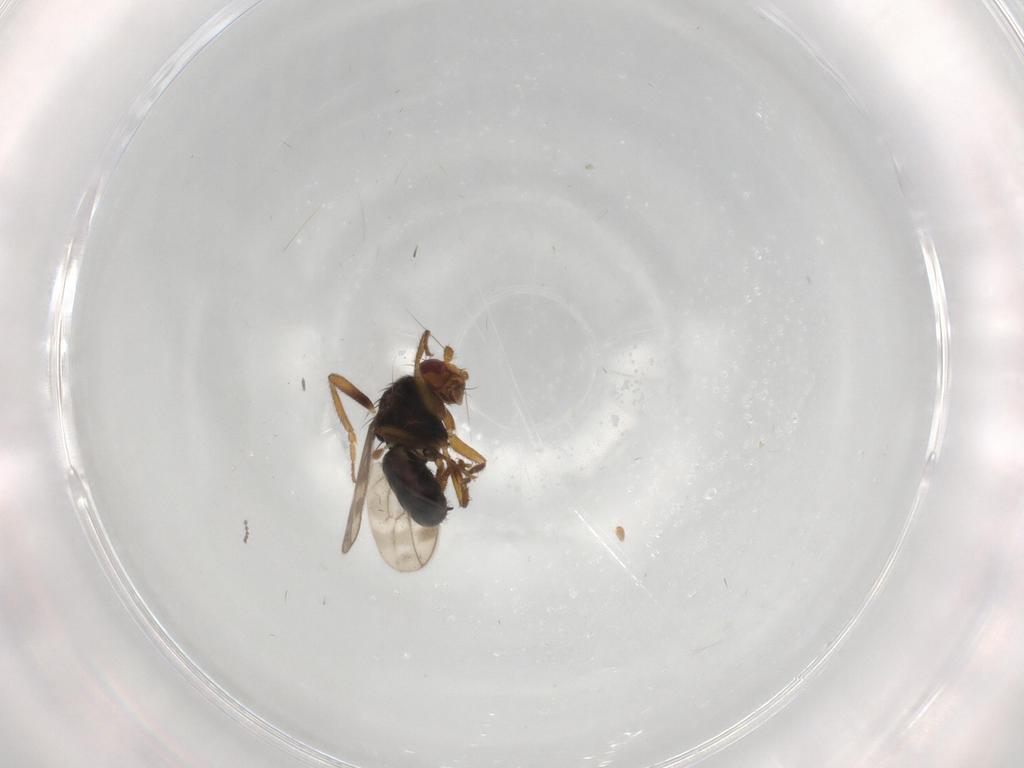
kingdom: Animalia
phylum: Arthropoda
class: Insecta
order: Diptera
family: Sphaeroceridae
